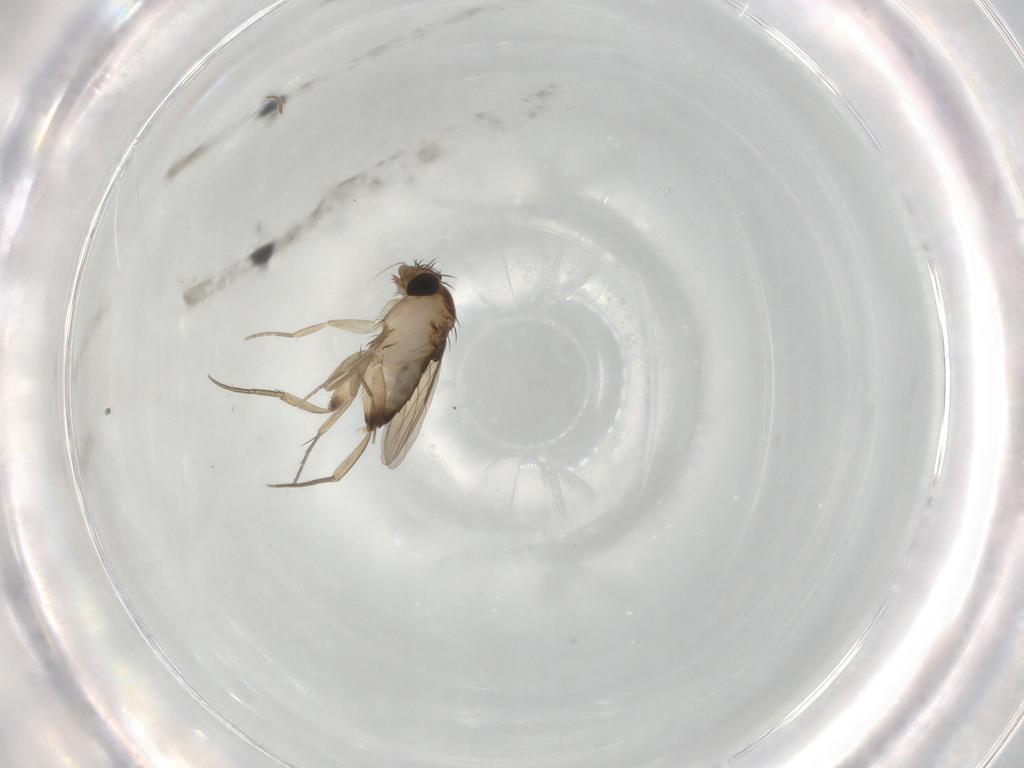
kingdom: Animalia
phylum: Arthropoda
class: Insecta
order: Diptera
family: Phoridae
